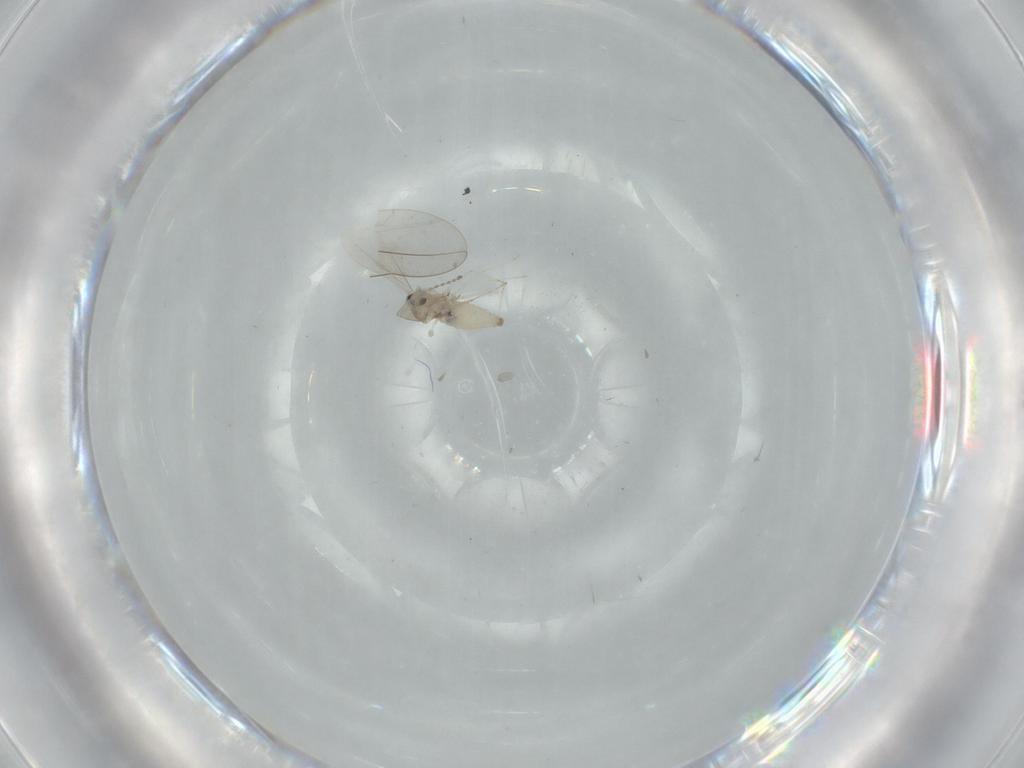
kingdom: Animalia
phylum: Arthropoda
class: Insecta
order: Diptera
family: Cecidomyiidae
